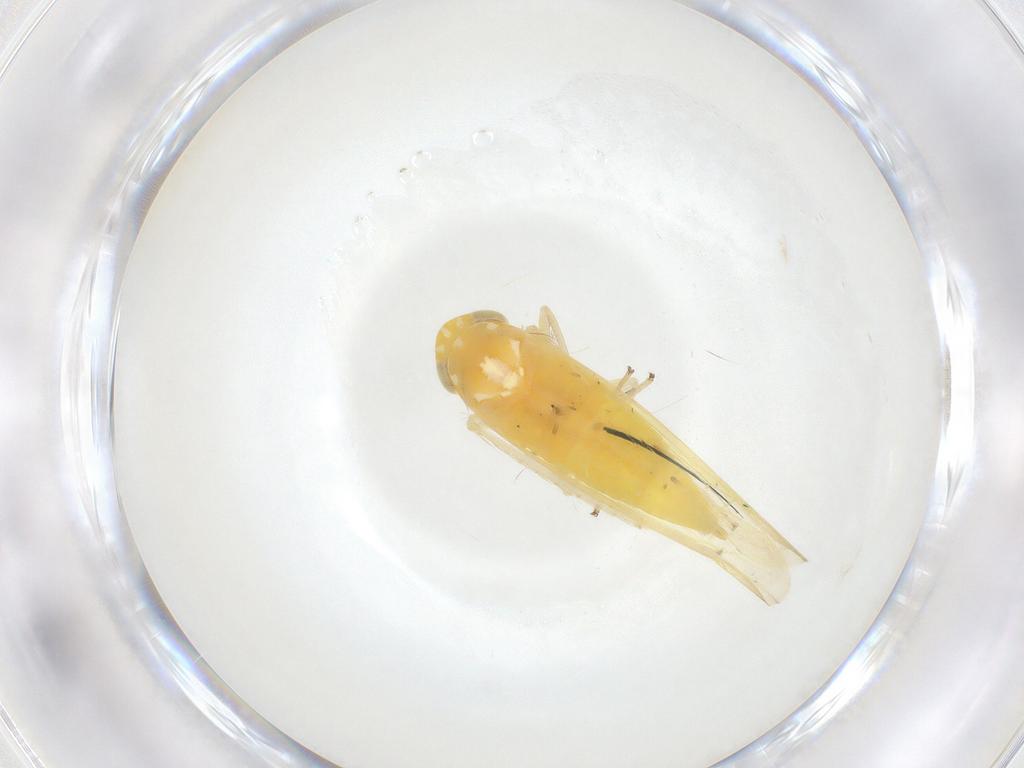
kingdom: Animalia
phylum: Arthropoda
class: Insecta
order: Hemiptera
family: Cicadellidae
